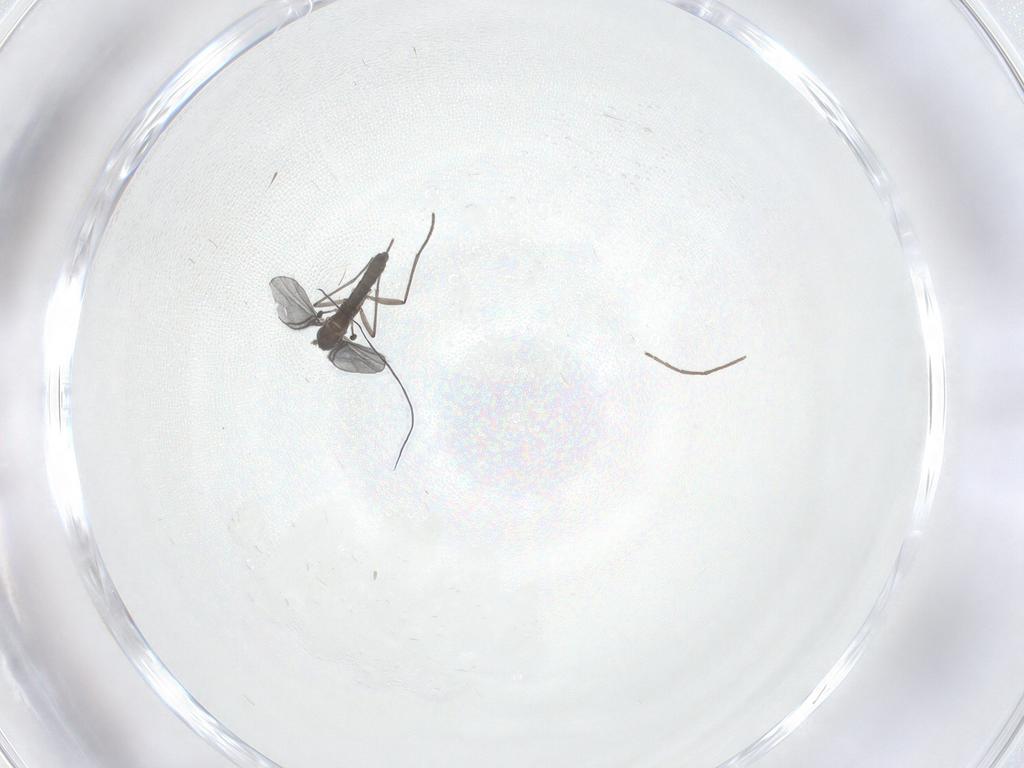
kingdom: Animalia
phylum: Arthropoda
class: Insecta
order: Diptera
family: Chironomidae
